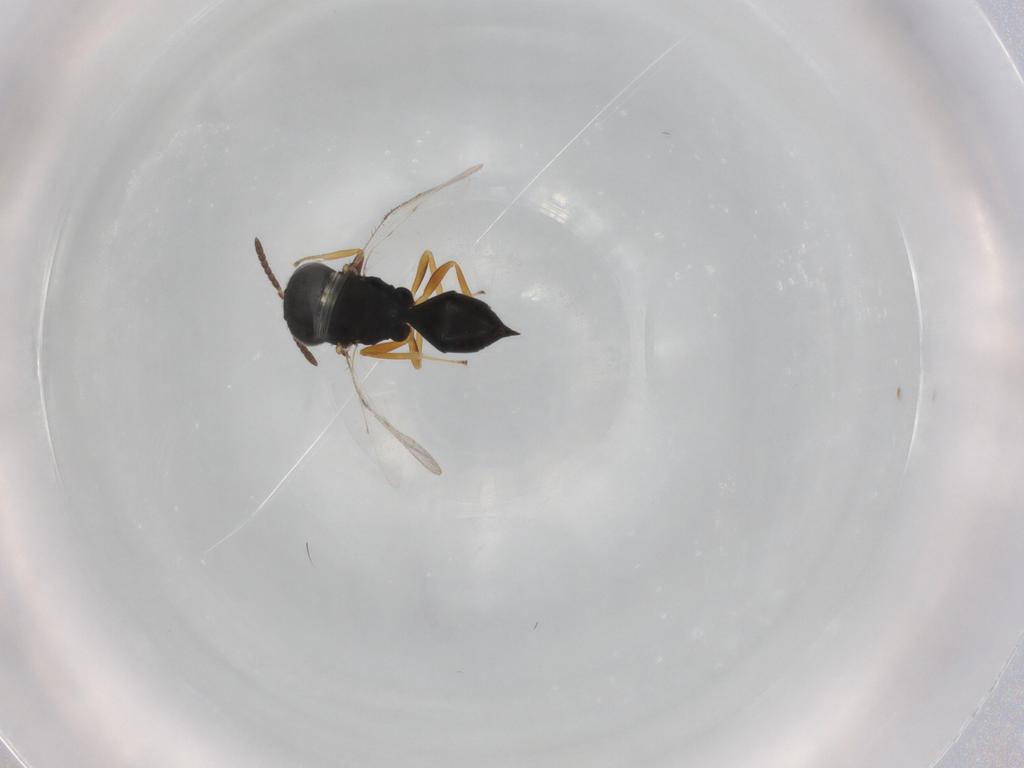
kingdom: Animalia
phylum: Arthropoda
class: Insecta
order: Hymenoptera
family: Pteromalidae
